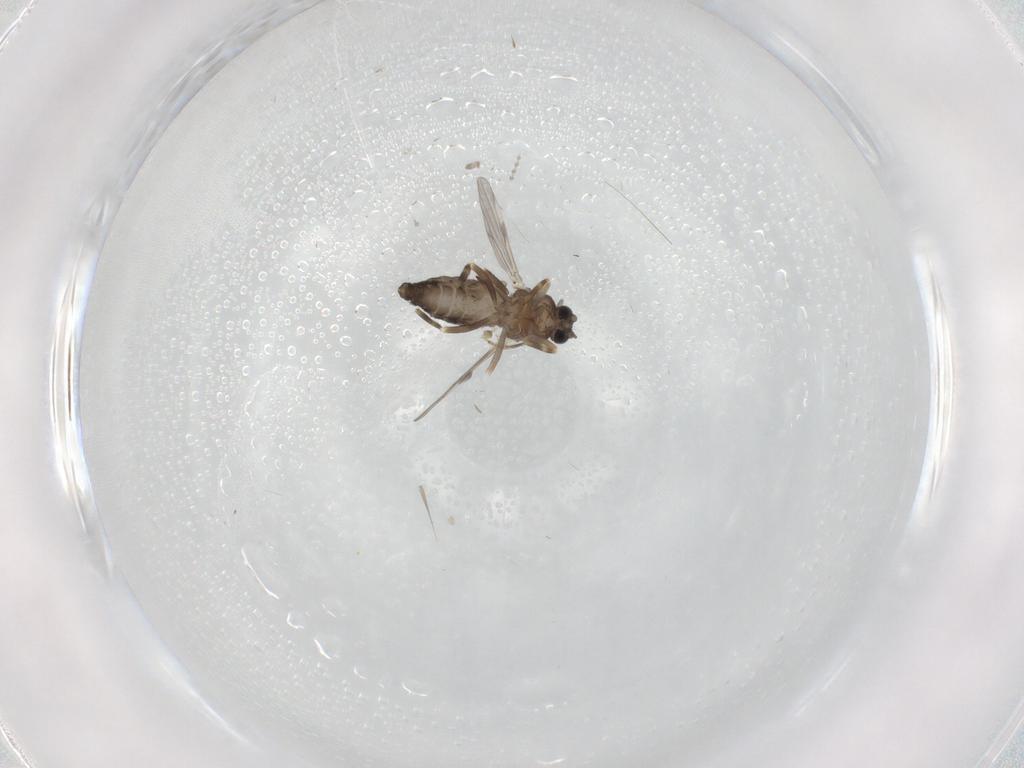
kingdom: Animalia
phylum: Arthropoda
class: Insecta
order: Diptera
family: Ceratopogonidae
